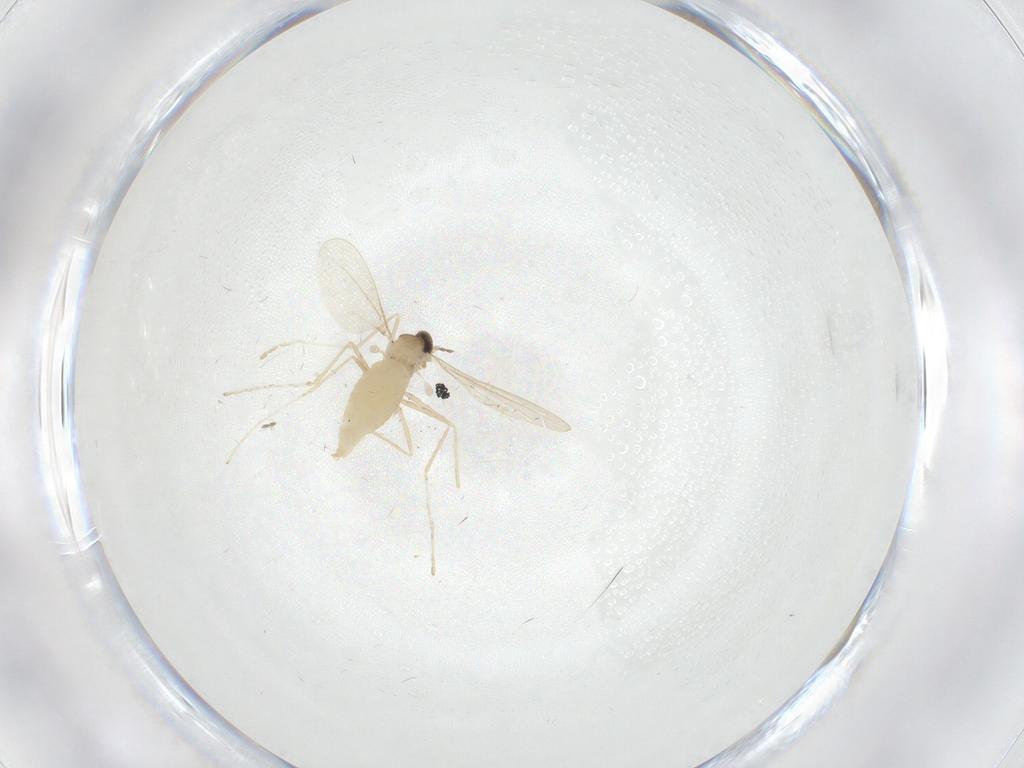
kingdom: Animalia
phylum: Arthropoda
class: Insecta
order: Diptera
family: Cecidomyiidae
